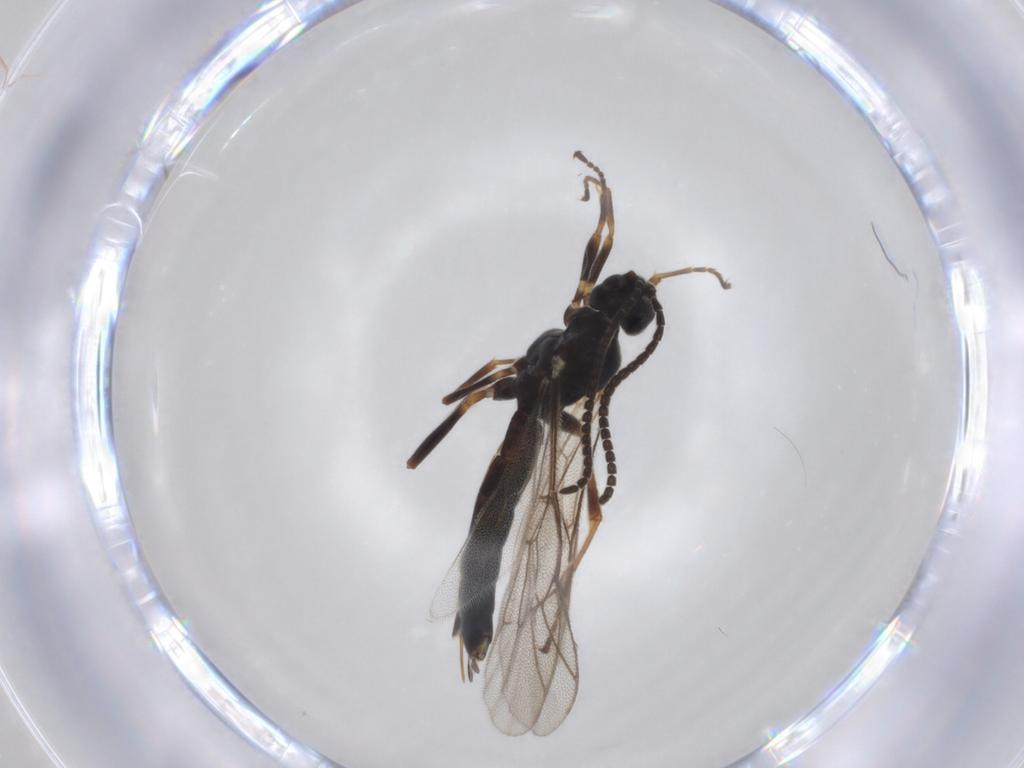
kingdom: Animalia
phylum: Arthropoda
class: Insecta
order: Hymenoptera
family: Ichneumonidae
